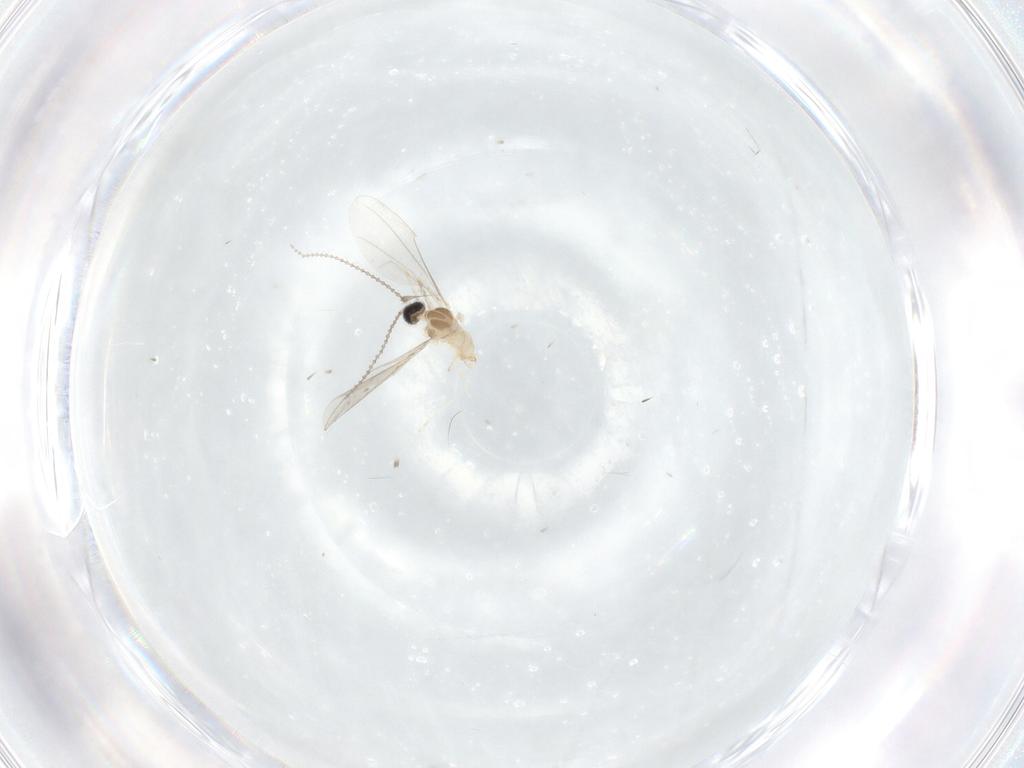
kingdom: Animalia
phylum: Arthropoda
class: Insecta
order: Diptera
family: Cecidomyiidae
